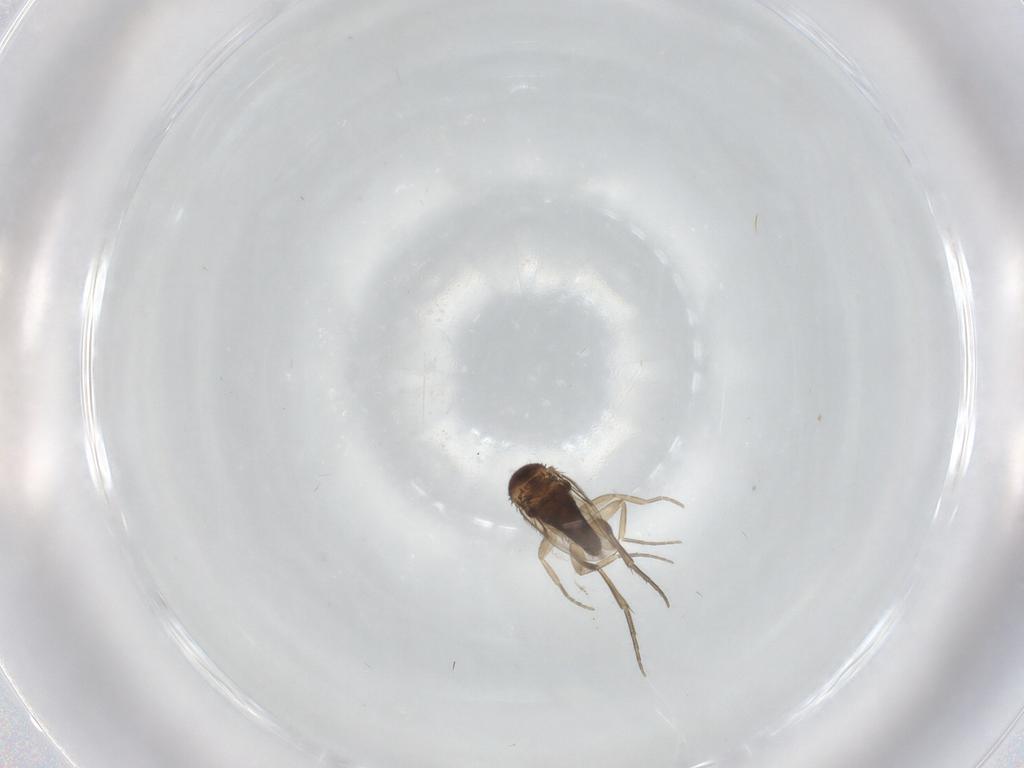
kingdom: Animalia
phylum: Arthropoda
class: Insecta
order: Diptera
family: Phoridae
